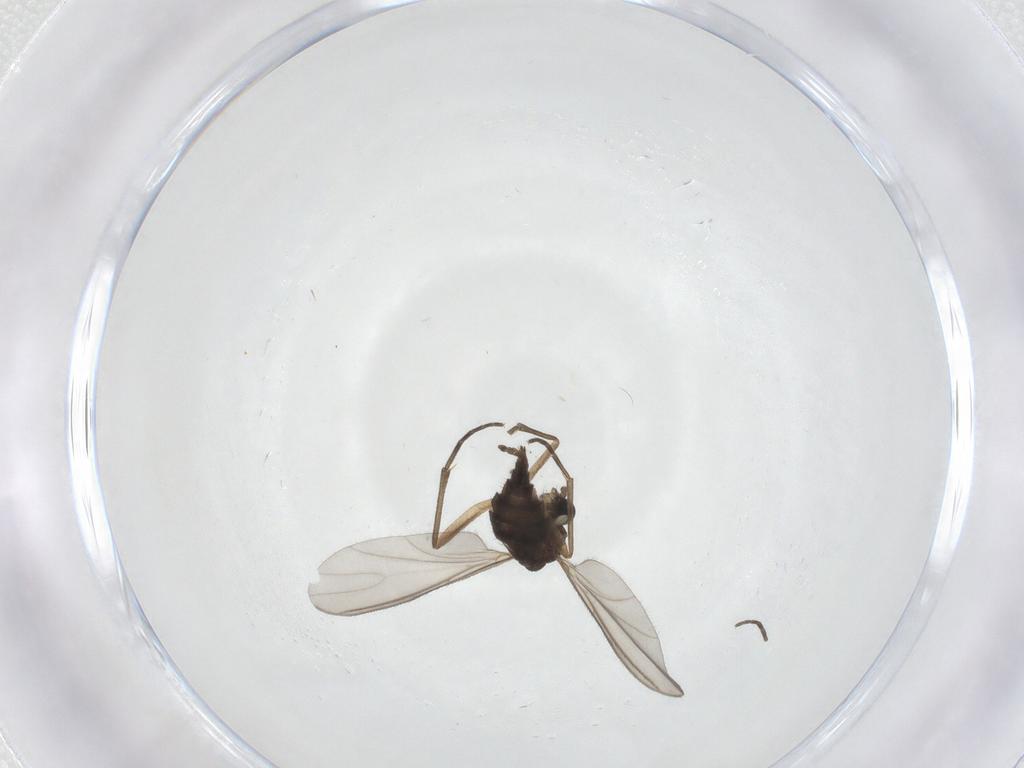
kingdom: Animalia
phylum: Arthropoda
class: Insecta
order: Diptera
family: Sciaridae
